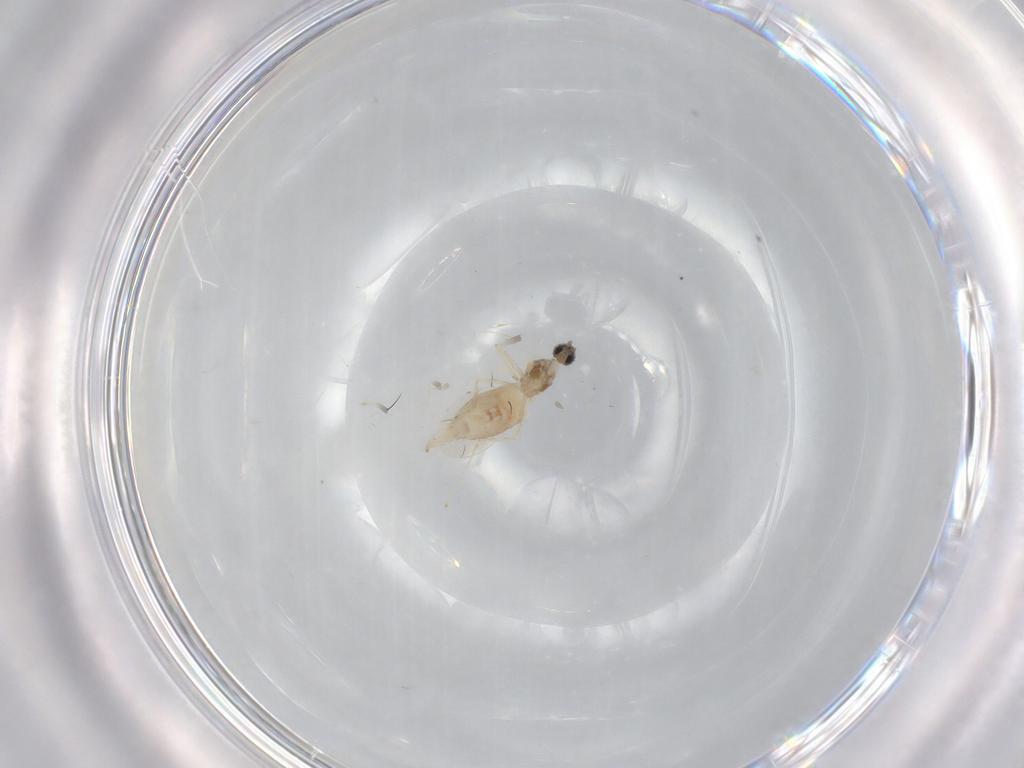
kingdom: Animalia
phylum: Arthropoda
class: Insecta
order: Diptera
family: Cecidomyiidae
